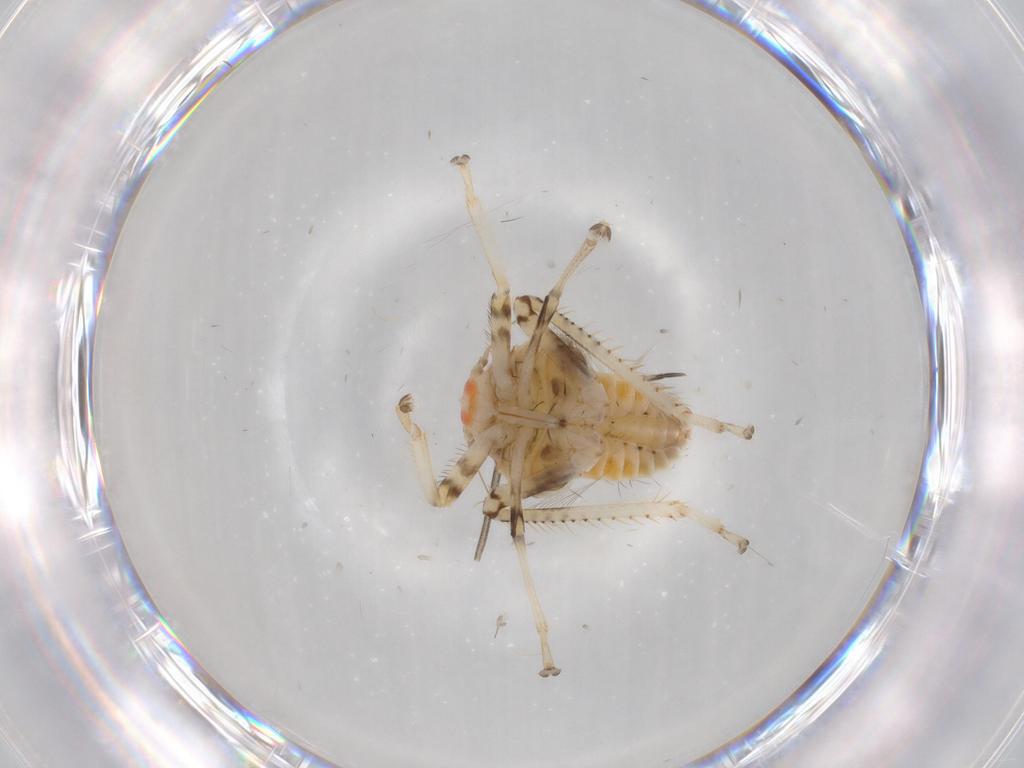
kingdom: Animalia
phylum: Arthropoda
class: Insecta
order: Hemiptera
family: Cicadellidae
